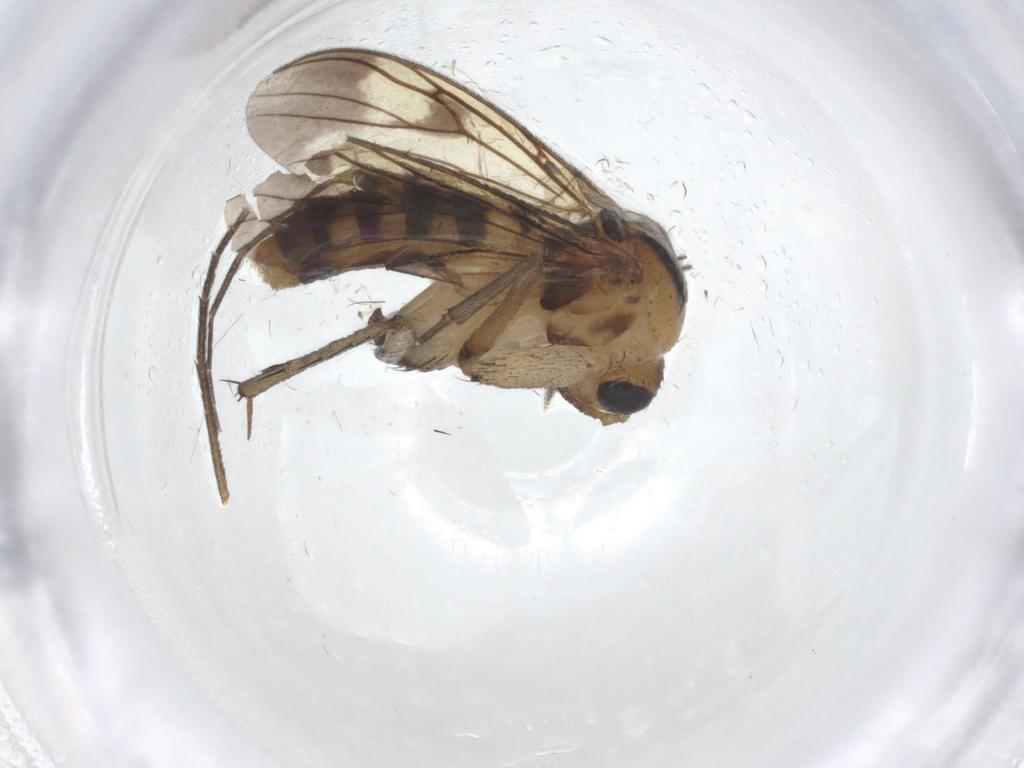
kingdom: Animalia
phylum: Arthropoda
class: Insecta
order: Diptera
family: Mycetophilidae
